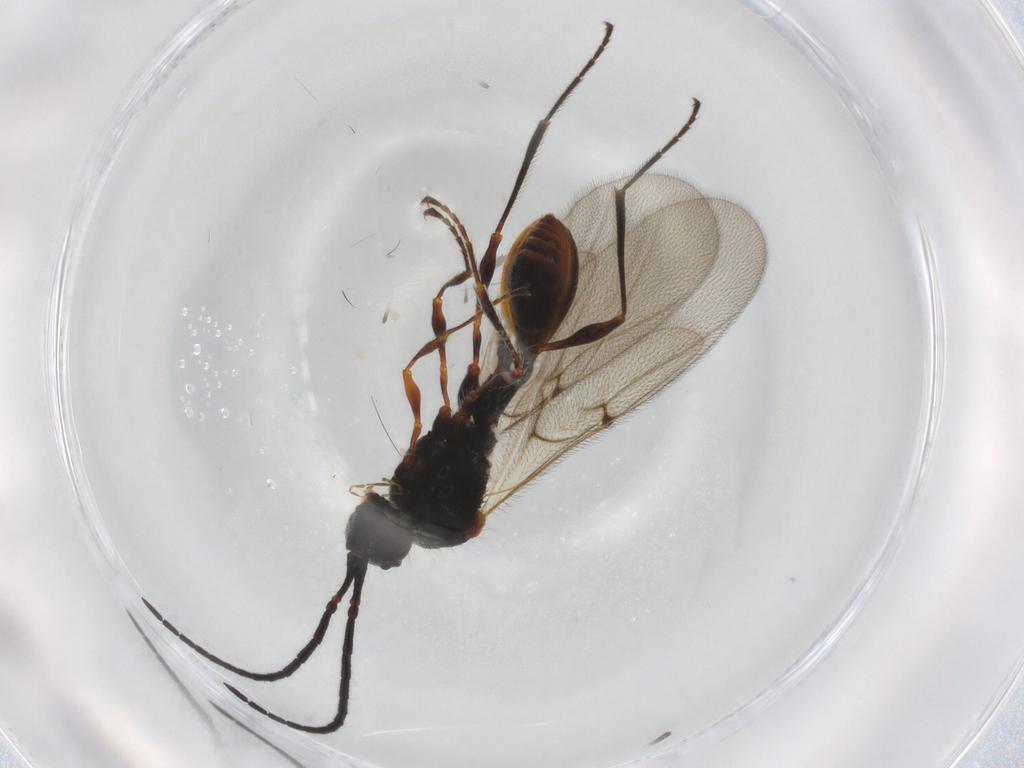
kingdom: Animalia
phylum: Arthropoda
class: Insecta
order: Hymenoptera
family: Diapriidae
